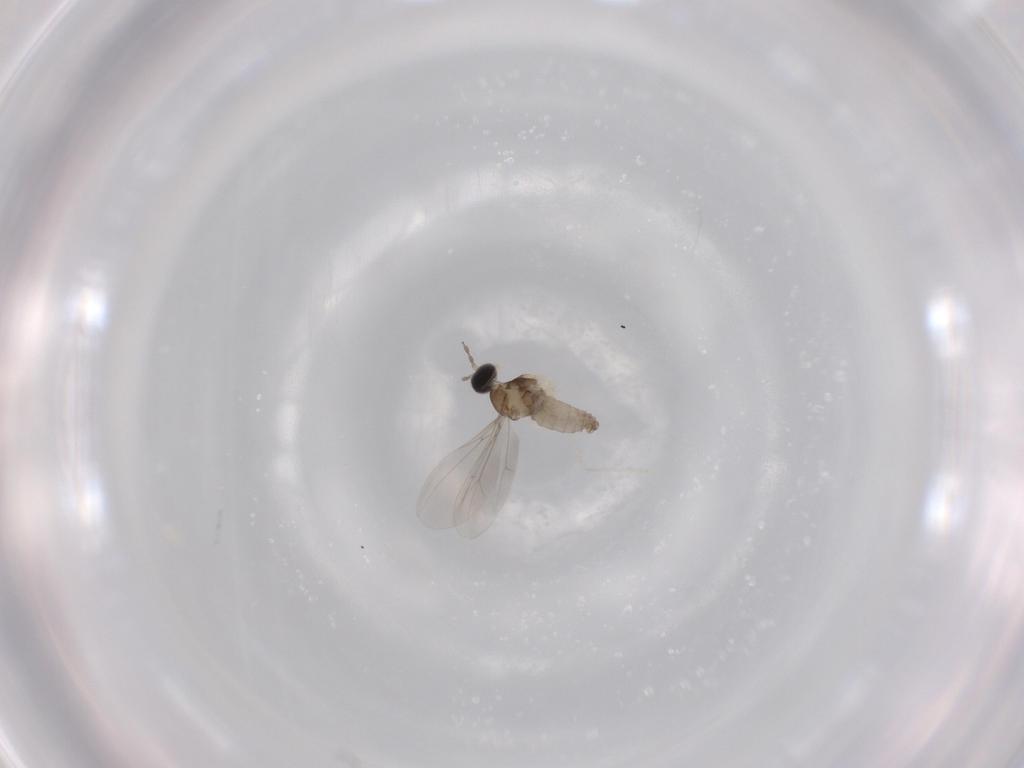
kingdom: Animalia
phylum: Arthropoda
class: Insecta
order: Diptera
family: Cecidomyiidae
